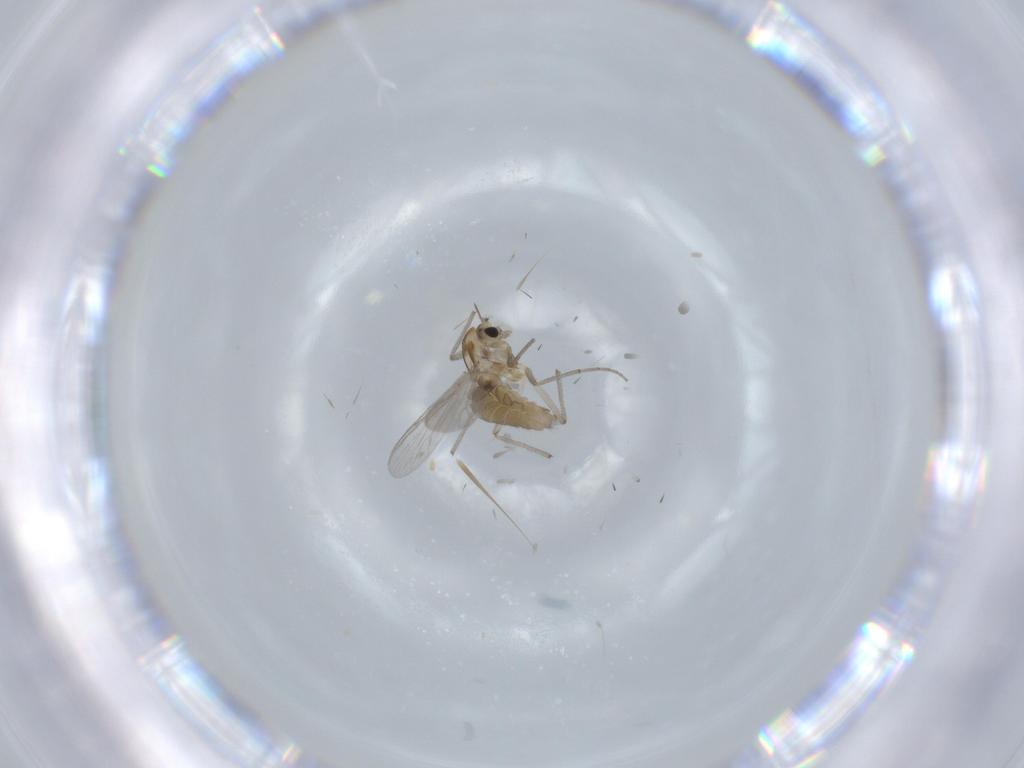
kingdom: Animalia
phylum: Arthropoda
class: Insecta
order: Diptera
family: Chironomidae
